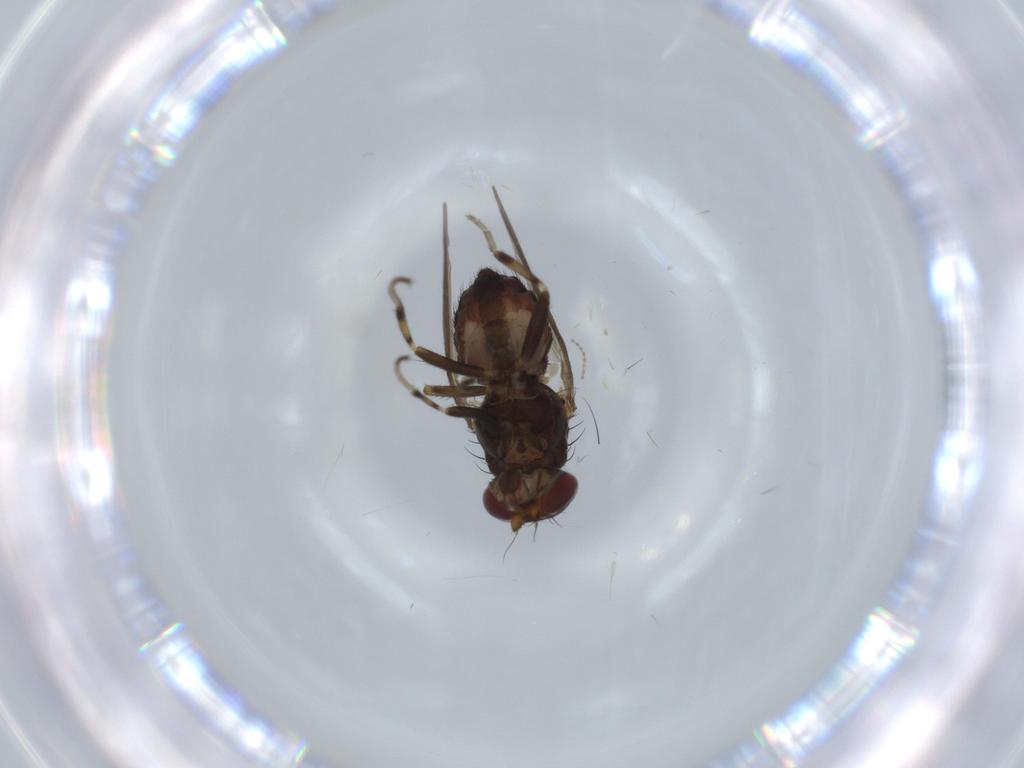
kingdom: Animalia
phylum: Arthropoda
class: Insecta
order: Diptera
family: Heleomyzidae
